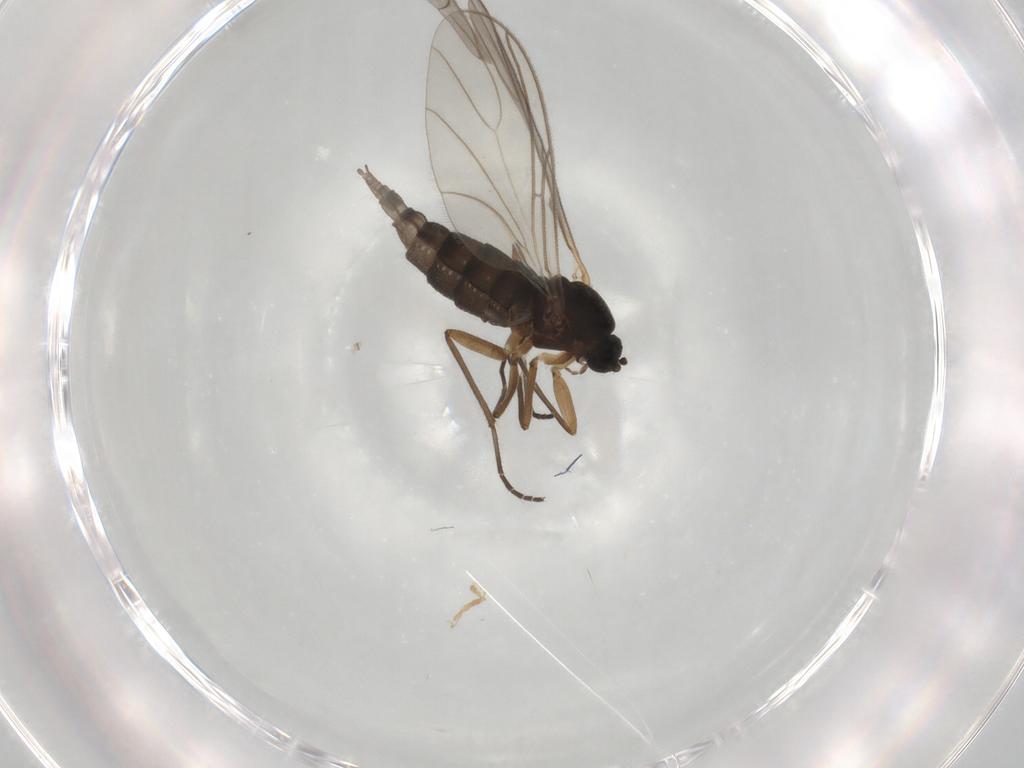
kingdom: Animalia
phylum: Arthropoda
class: Insecta
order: Diptera
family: Sciaridae
